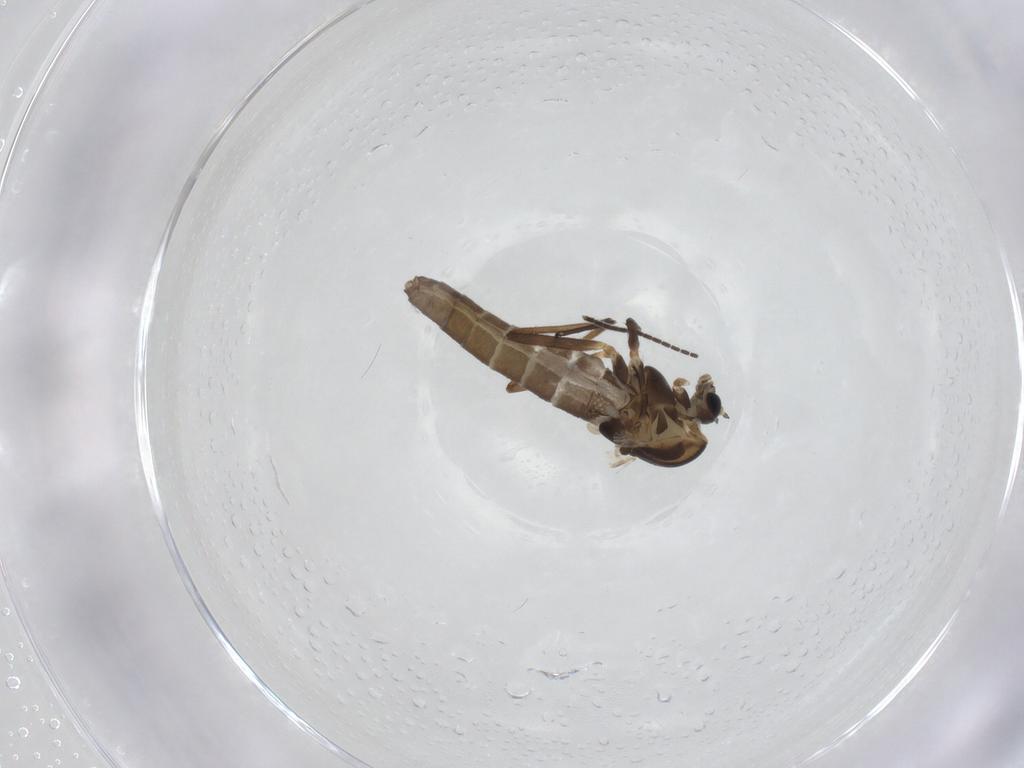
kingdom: Animalia
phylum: Arthropoda
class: Insecta
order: Diptera
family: Chironomidae
